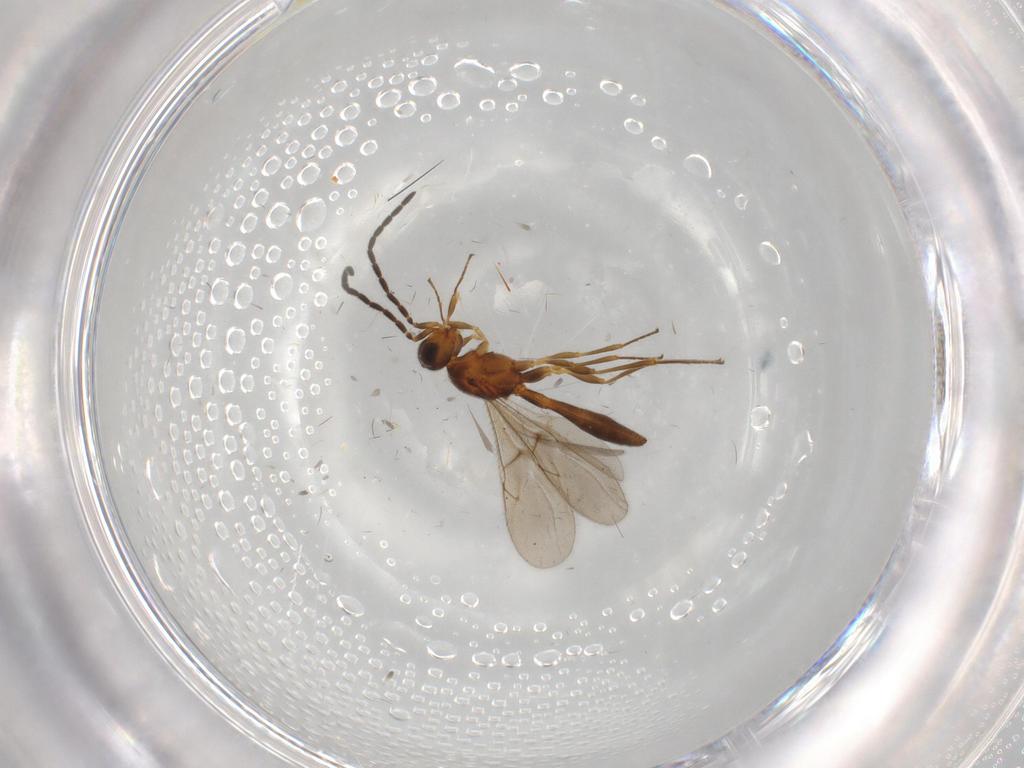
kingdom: Animalia
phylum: Arthropoda
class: Insecta
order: Hymenoptera
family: Scelionidae
